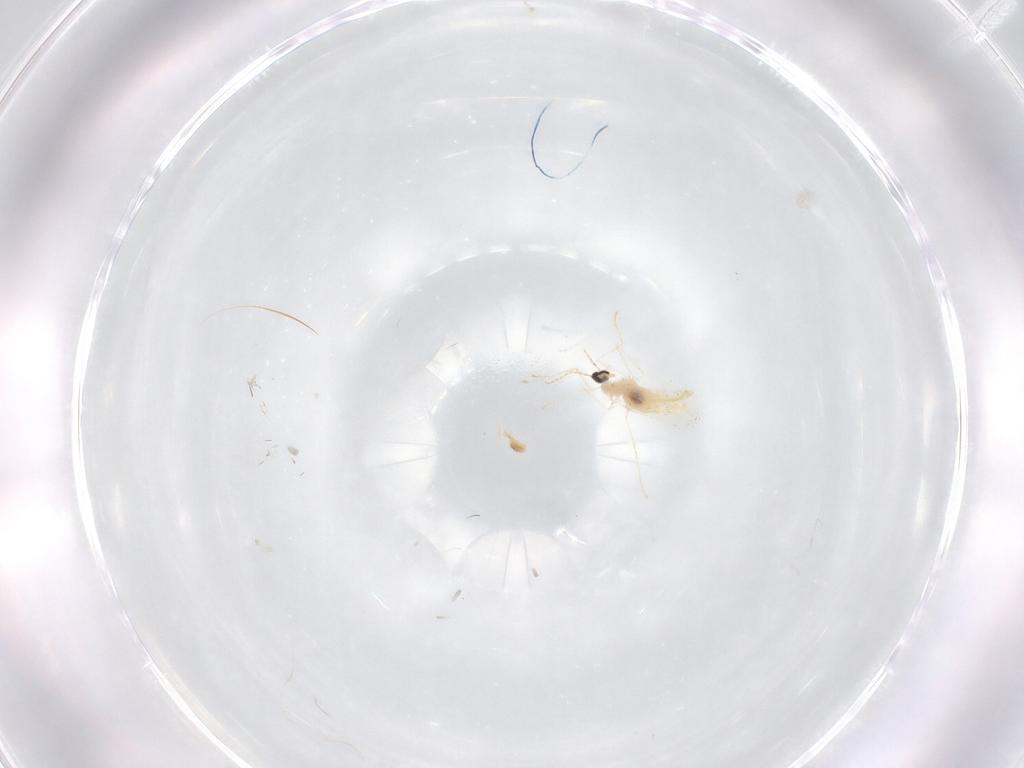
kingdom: Animalia
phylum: Arthropoda
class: Insecta
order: Diptera
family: Cecidomyiidae
